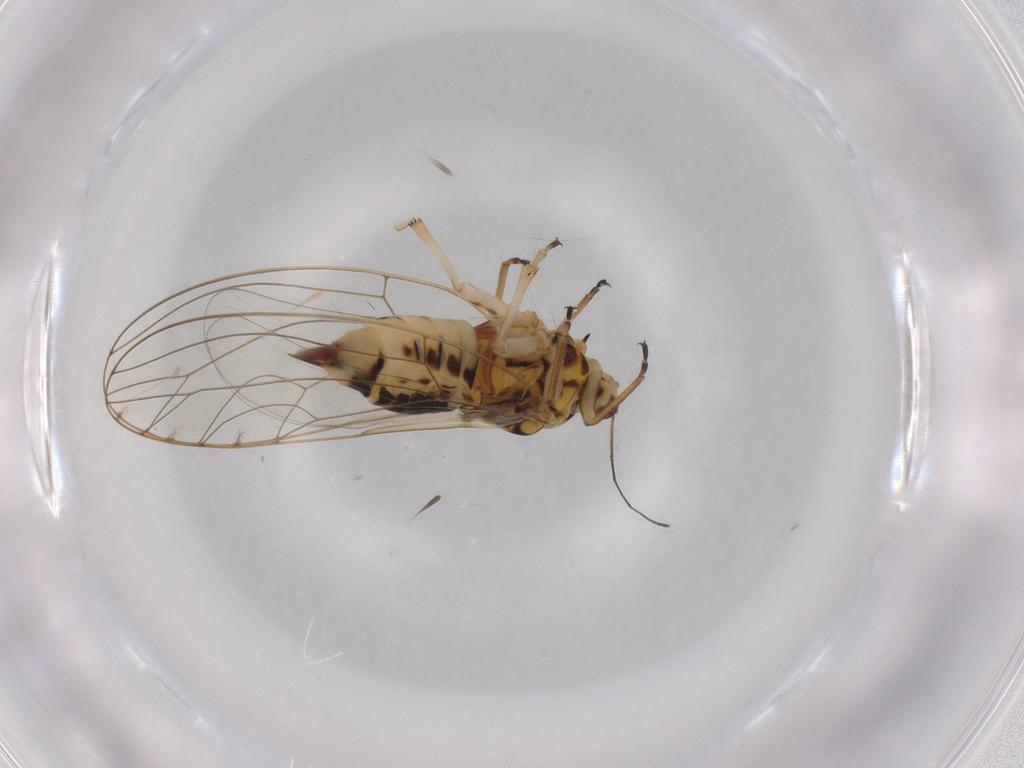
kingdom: Animalia
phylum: Arthropoda
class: Insecta
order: Hemiptera
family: Triozidae
